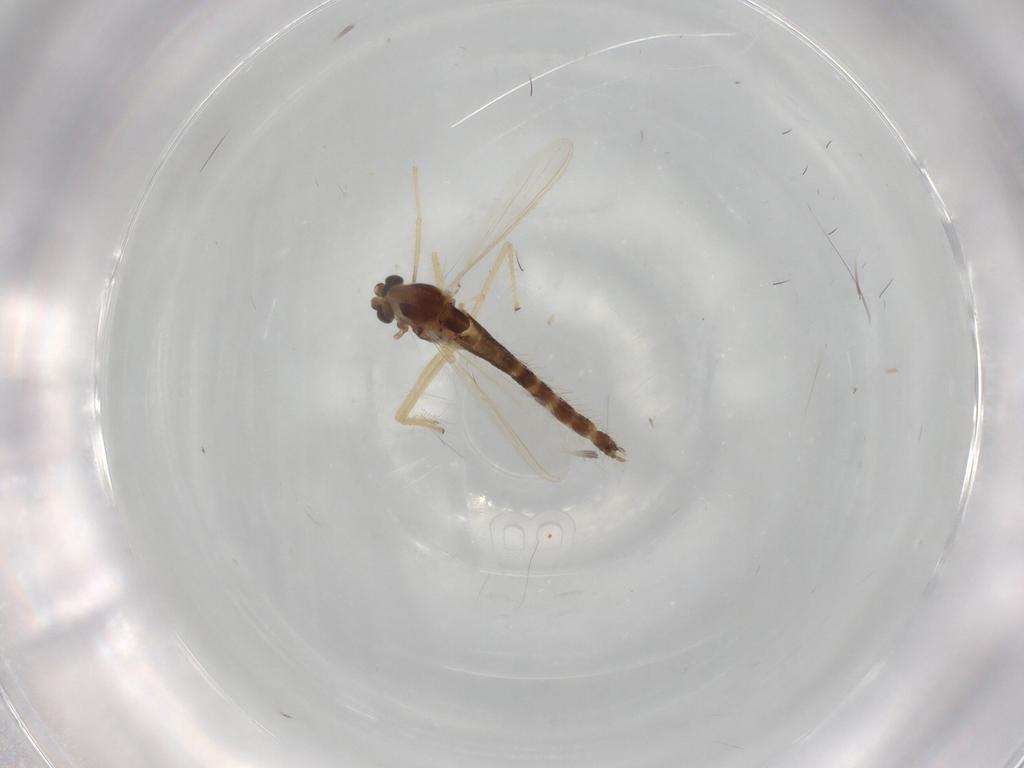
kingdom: Animalia
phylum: Arthropoda
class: Insecta
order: Diptera
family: Chironomidae
